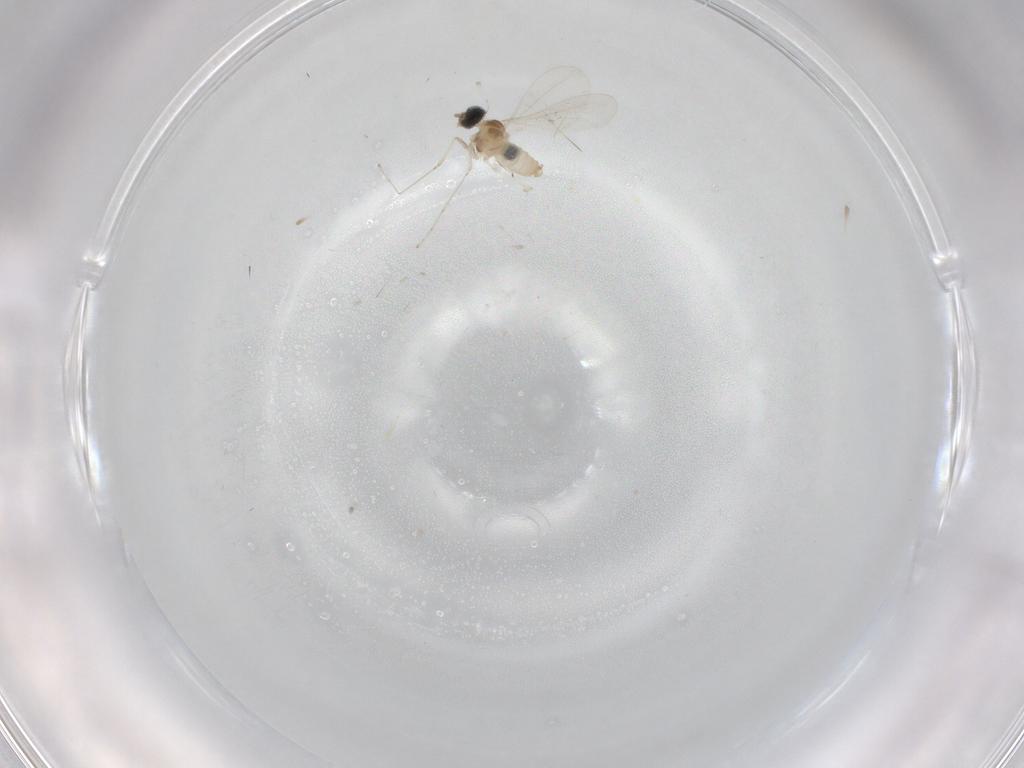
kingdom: Animalia
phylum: Arthropoda
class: Insecta
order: Diptera
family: Cecidomyiidae
